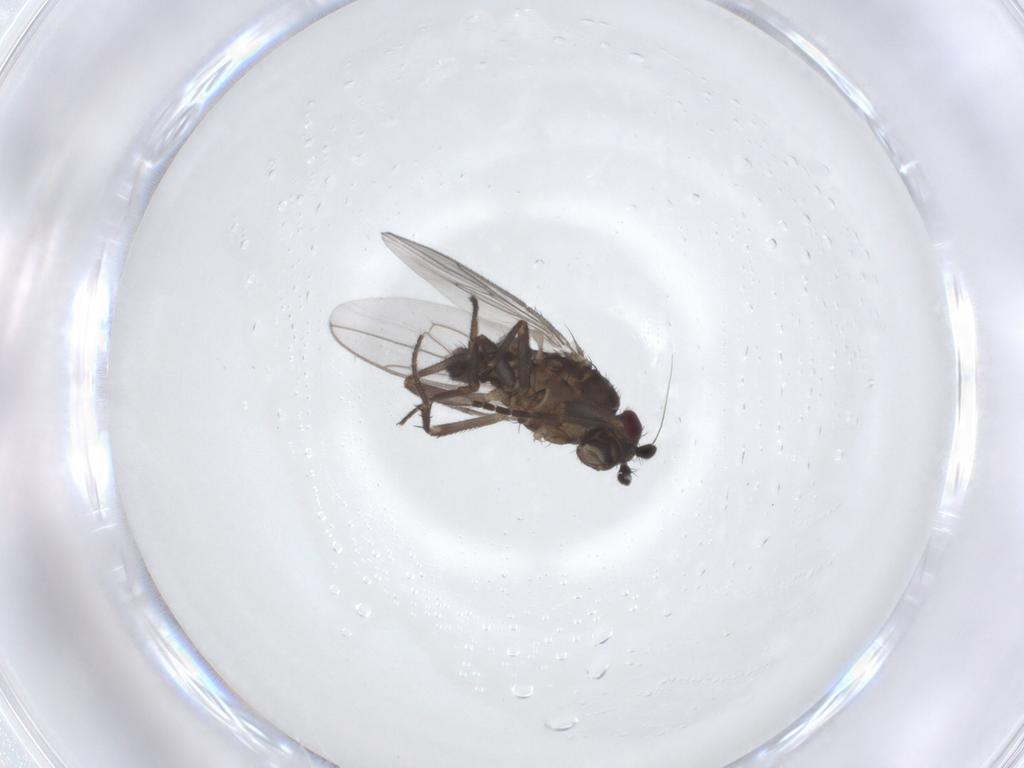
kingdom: Animalia
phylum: Arthropoda
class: Insecta
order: Diptera
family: Sphaeroceridae
